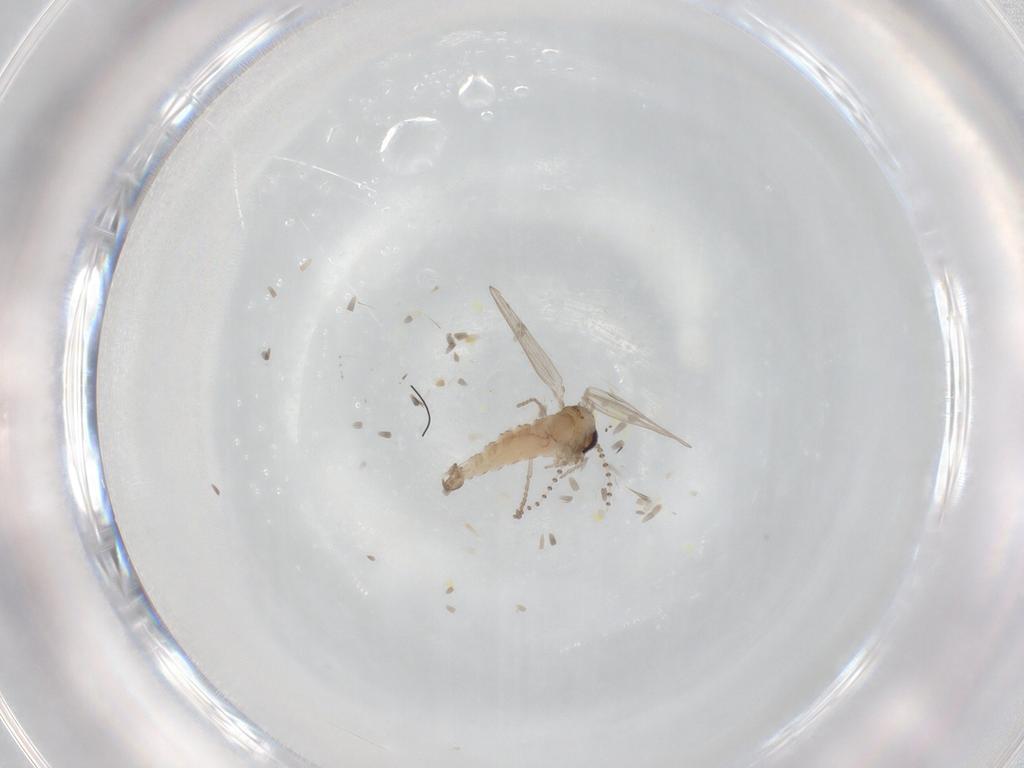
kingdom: Animalia
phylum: Arthropoda
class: Insecta
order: Diptera
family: Psychodidae
